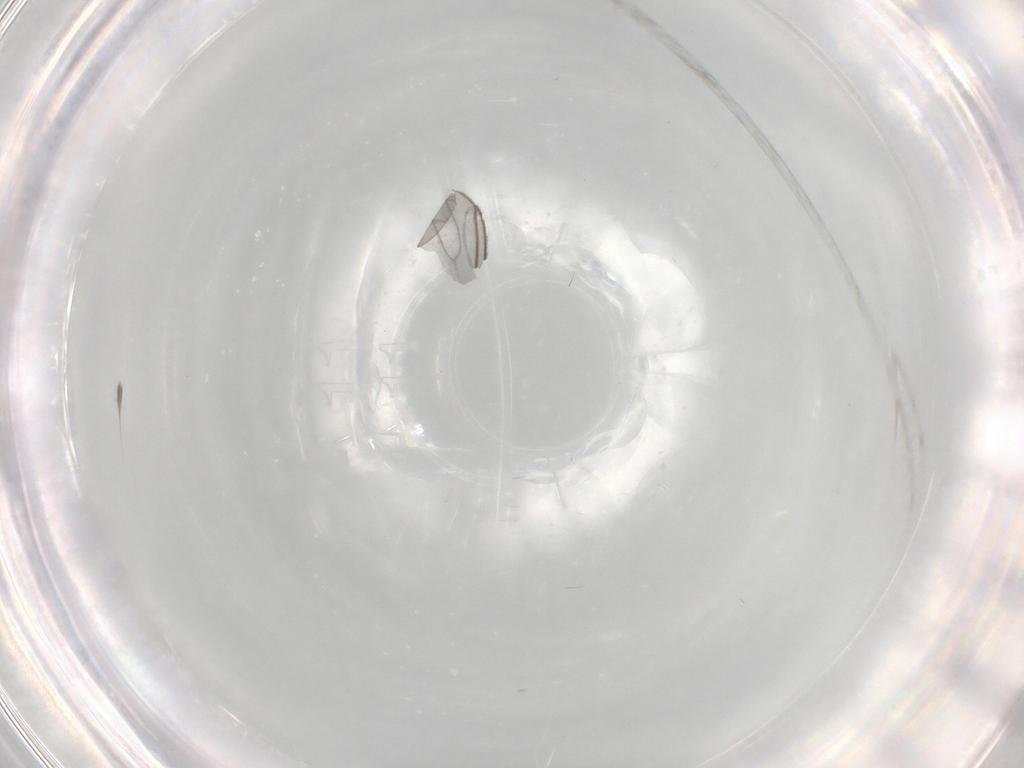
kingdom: Animalia
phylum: Arthropoda
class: Insecta
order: Diptera
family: Sciaridae
